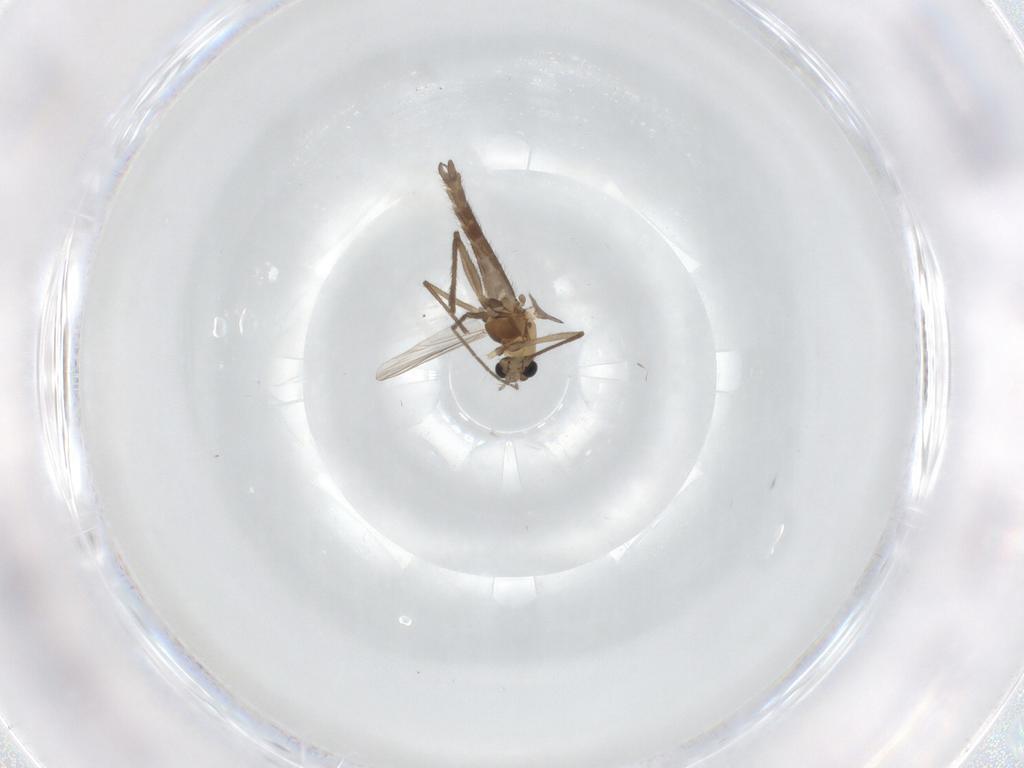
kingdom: Animalia
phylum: Arthropoda
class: Insecta
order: Diptera
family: Chironomidae
